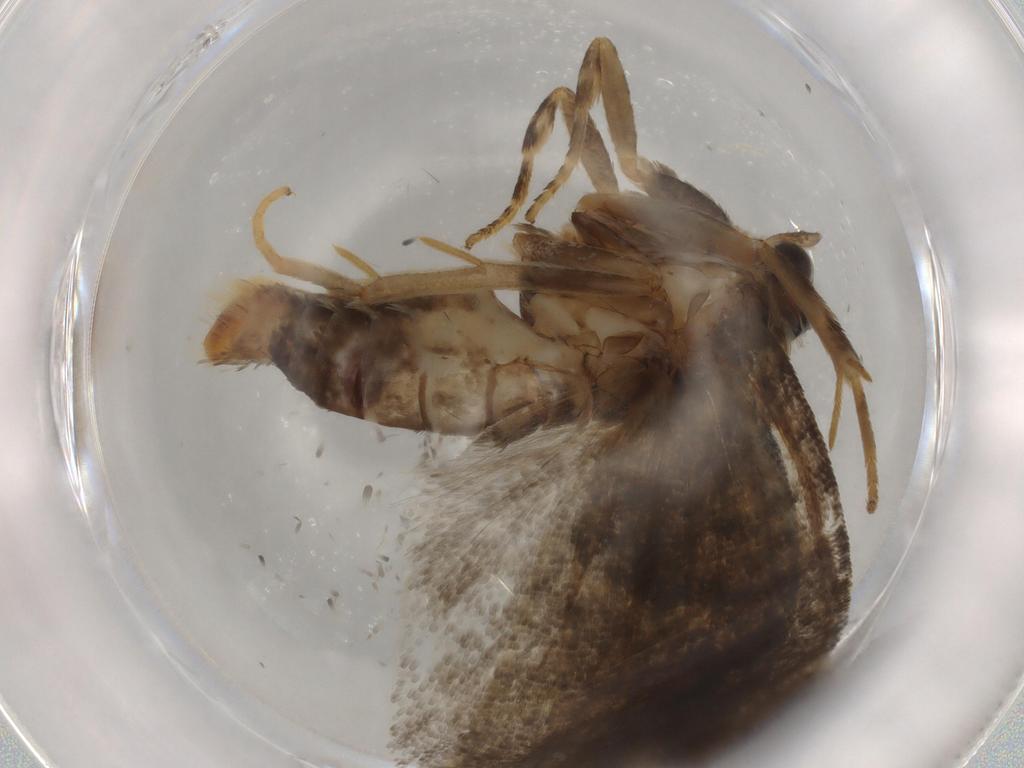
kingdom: Animalia
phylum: Arthropoda
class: Insecta
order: Lepidoptera
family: Tortricidae
